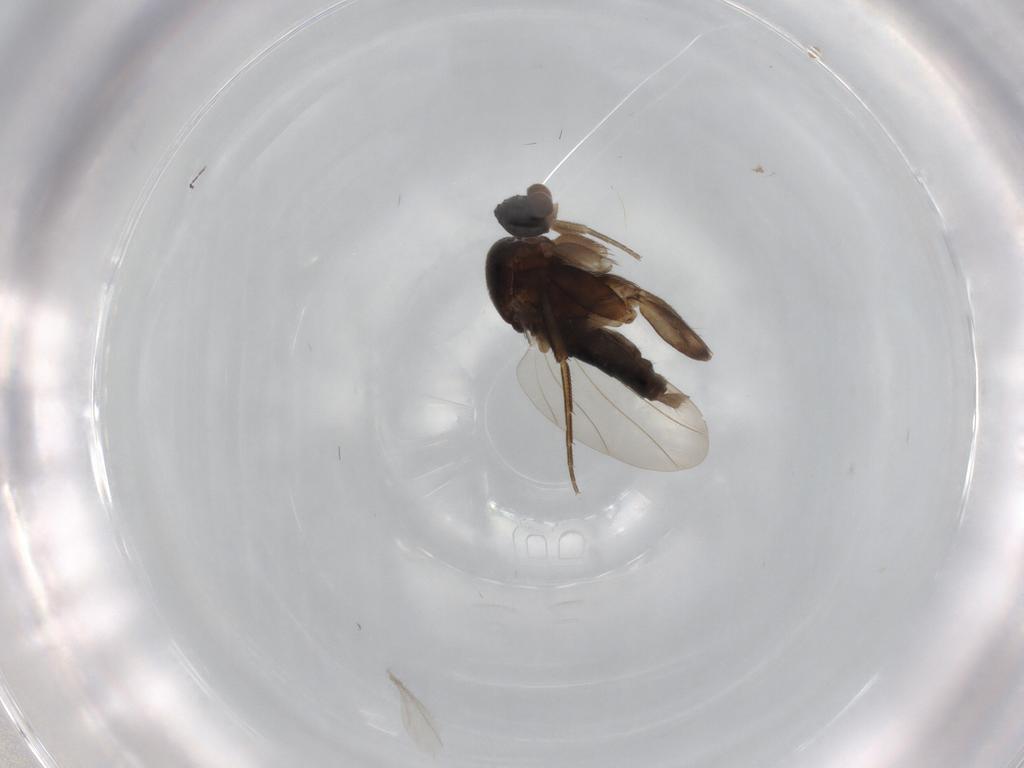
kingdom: Animalia
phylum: Arthropoda
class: Insecta
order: Diptera
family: Phoridae
